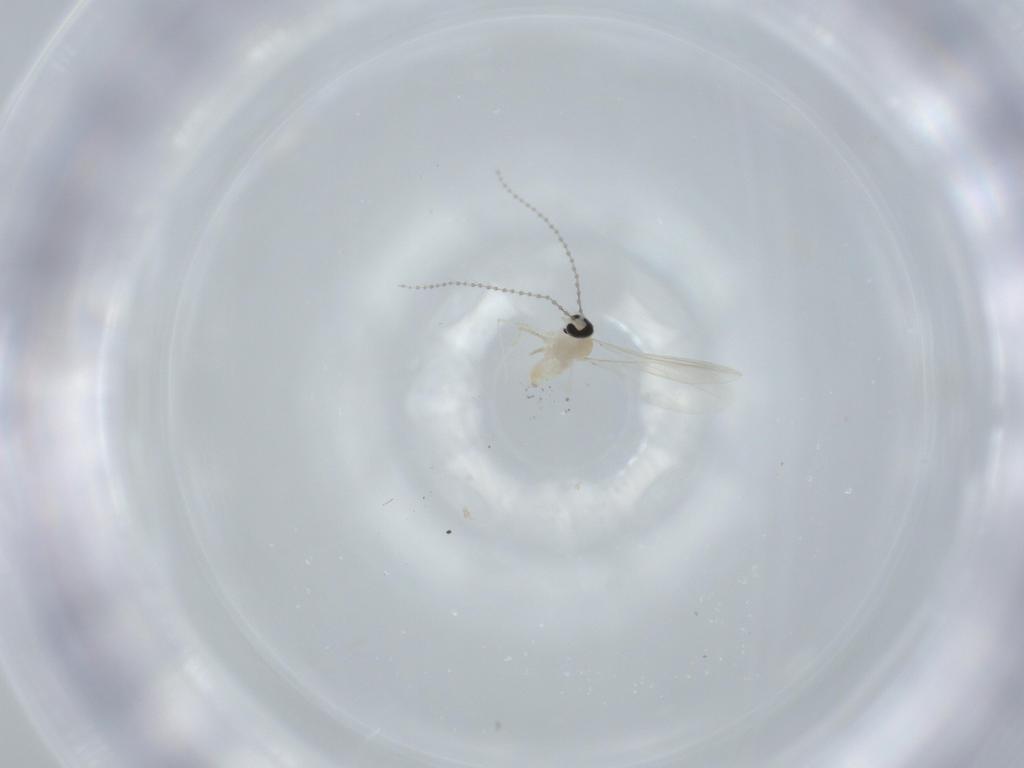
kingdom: Animalia
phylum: Arthropoda
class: Insecta
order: Diptera
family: Cecidomyiidae
